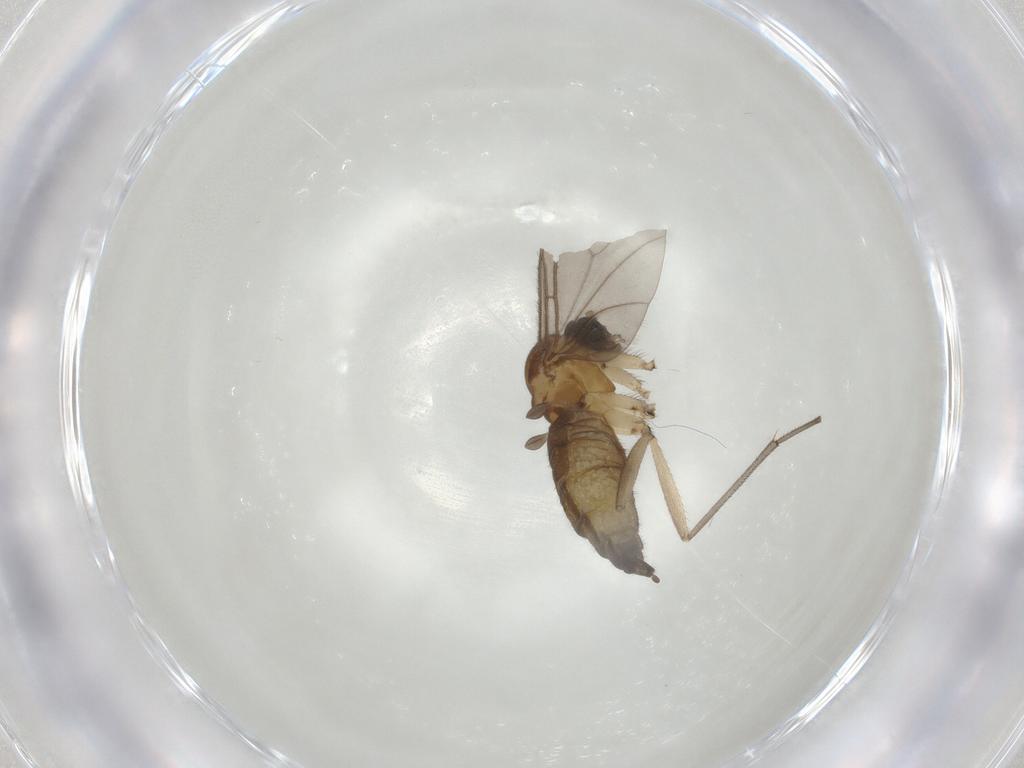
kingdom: Animalia
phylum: Arthropoda
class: Insecta
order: Diptera
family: Sciaridae
